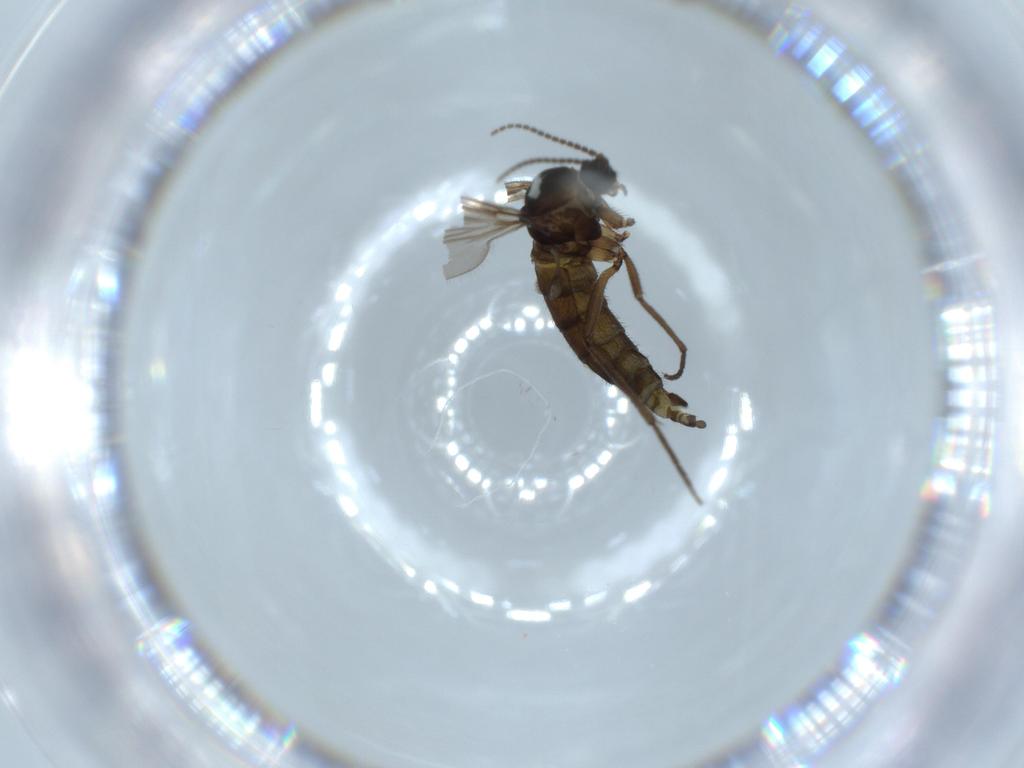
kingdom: Animalia
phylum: Arthropoda
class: Insecta
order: Diptera
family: Sciaridae
